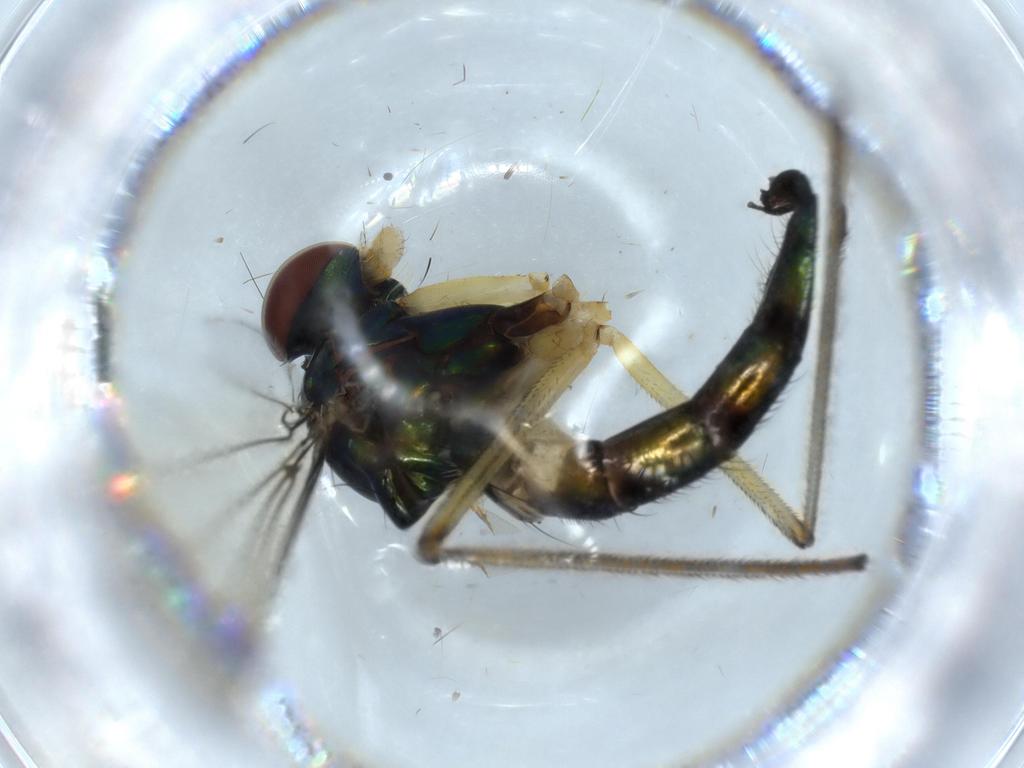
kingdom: Animalia
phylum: Arthropoda
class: Insecta
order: Diptera
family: Dolichopodidae
